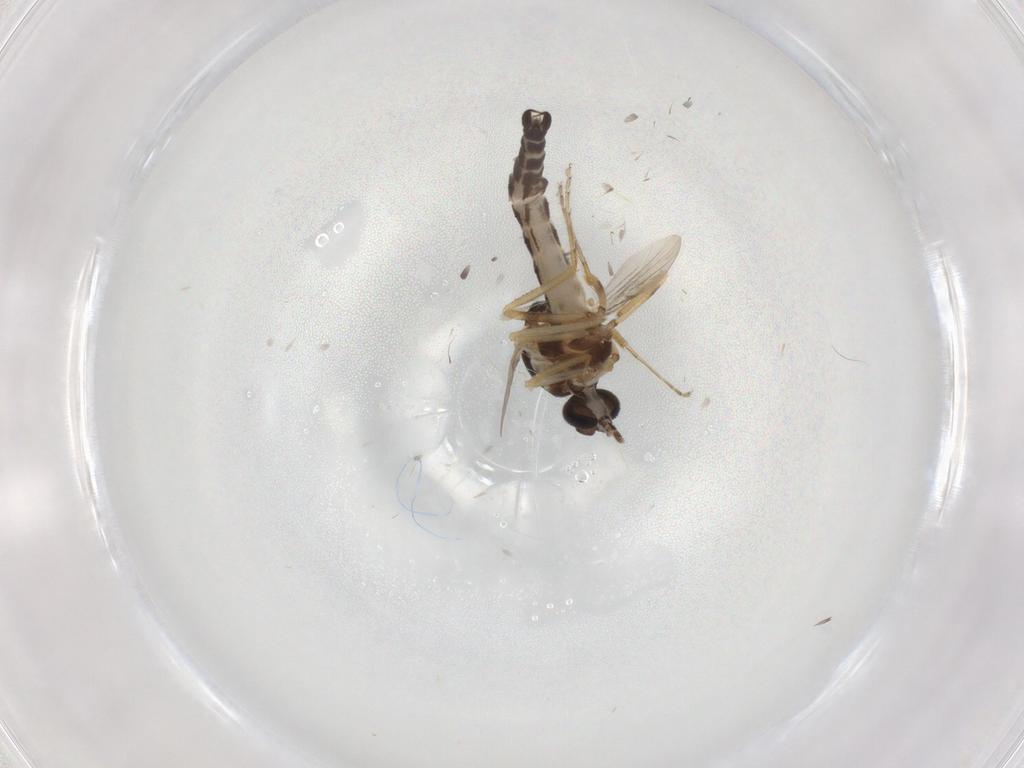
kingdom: Animalia
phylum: Arthropoda
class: Insecta
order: Diptera
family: Ceratopogonidae
